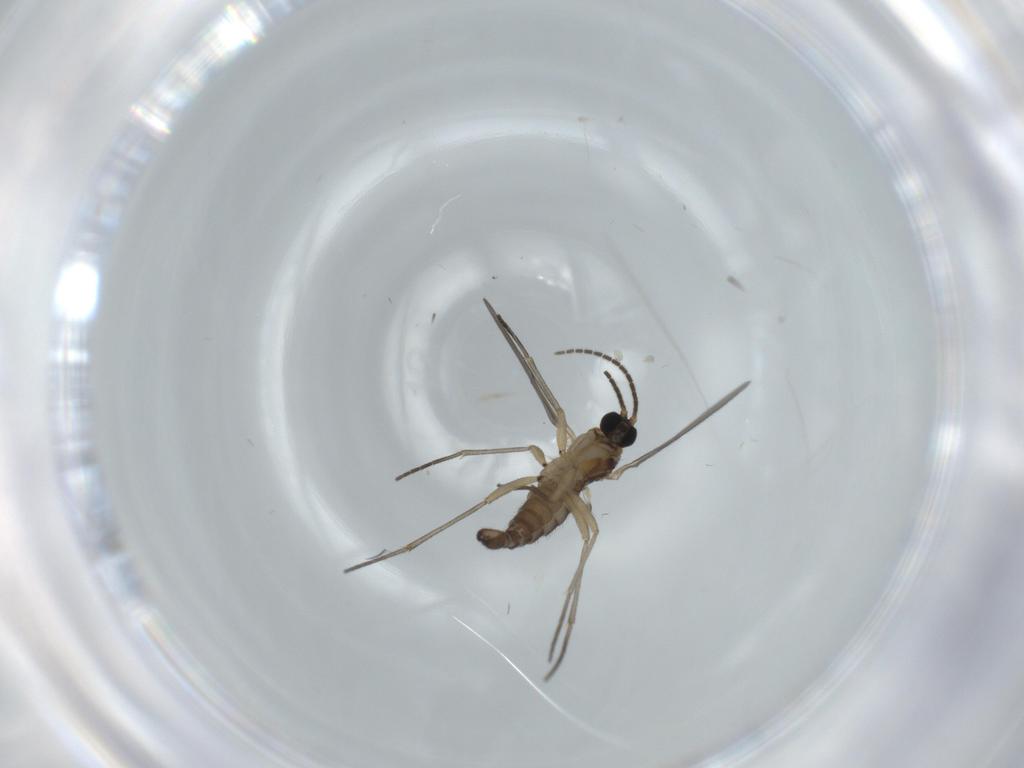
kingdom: Animalia
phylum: Arthropoda
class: Insecta
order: Diptera
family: Sciaridae
